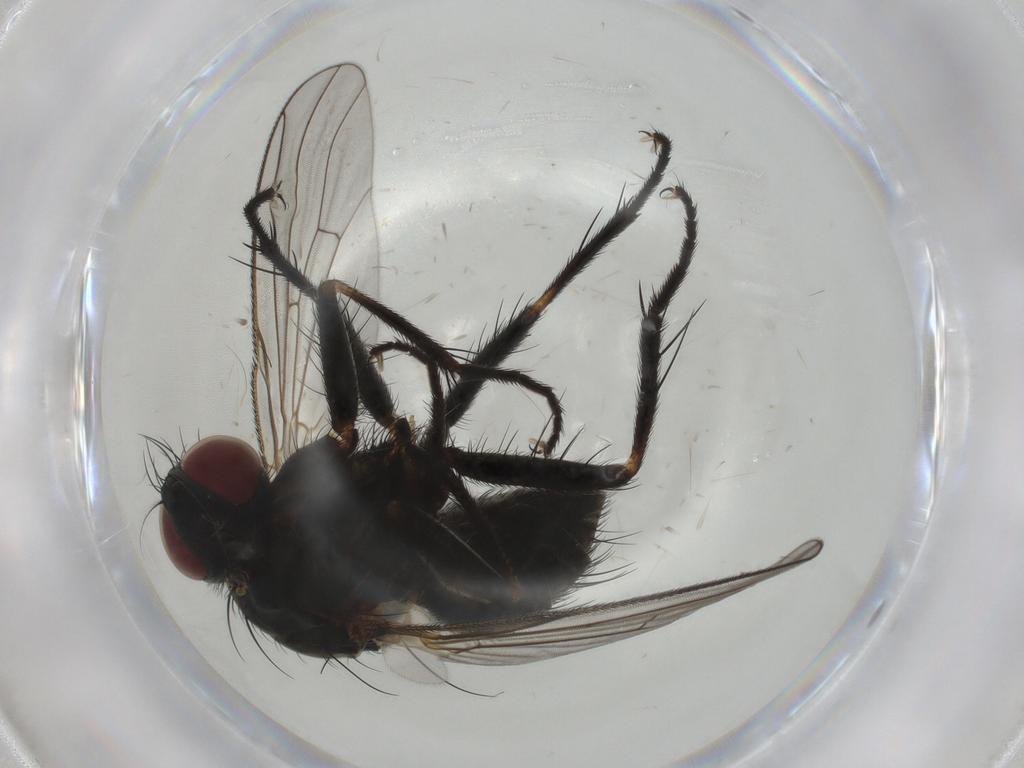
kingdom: Animalia
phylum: Arthropoda
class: Insecta
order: Diptera
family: Muscidae
